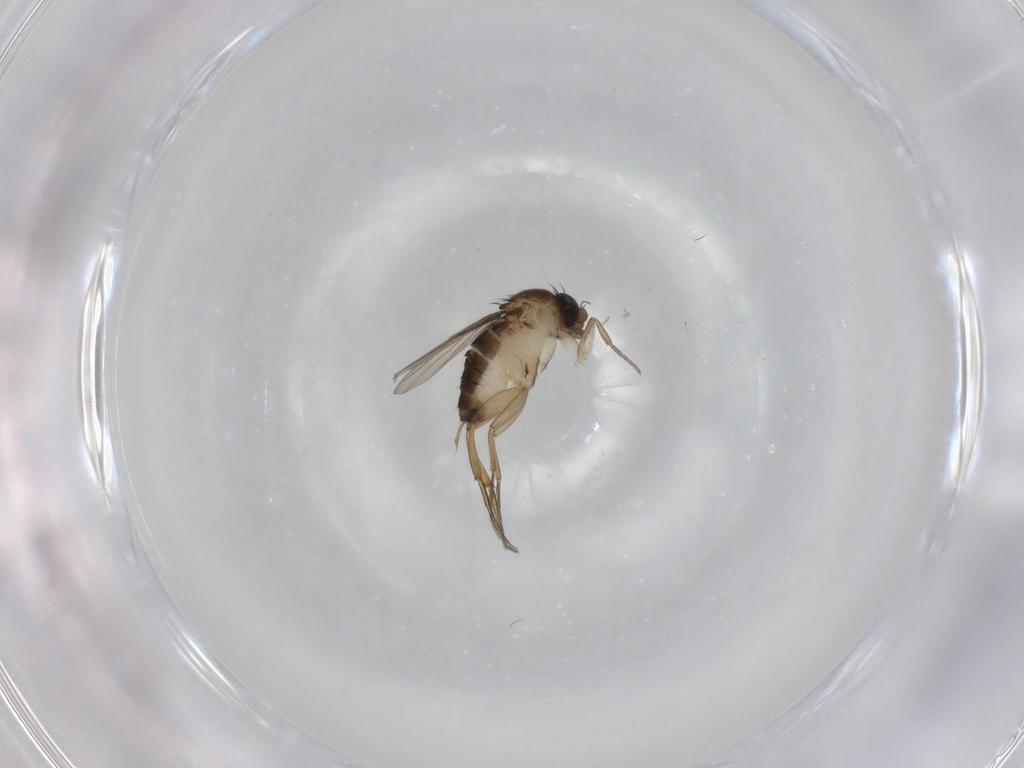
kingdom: Animalia
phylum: Arthropoda
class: Insecta
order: Diptera
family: Phoridae
